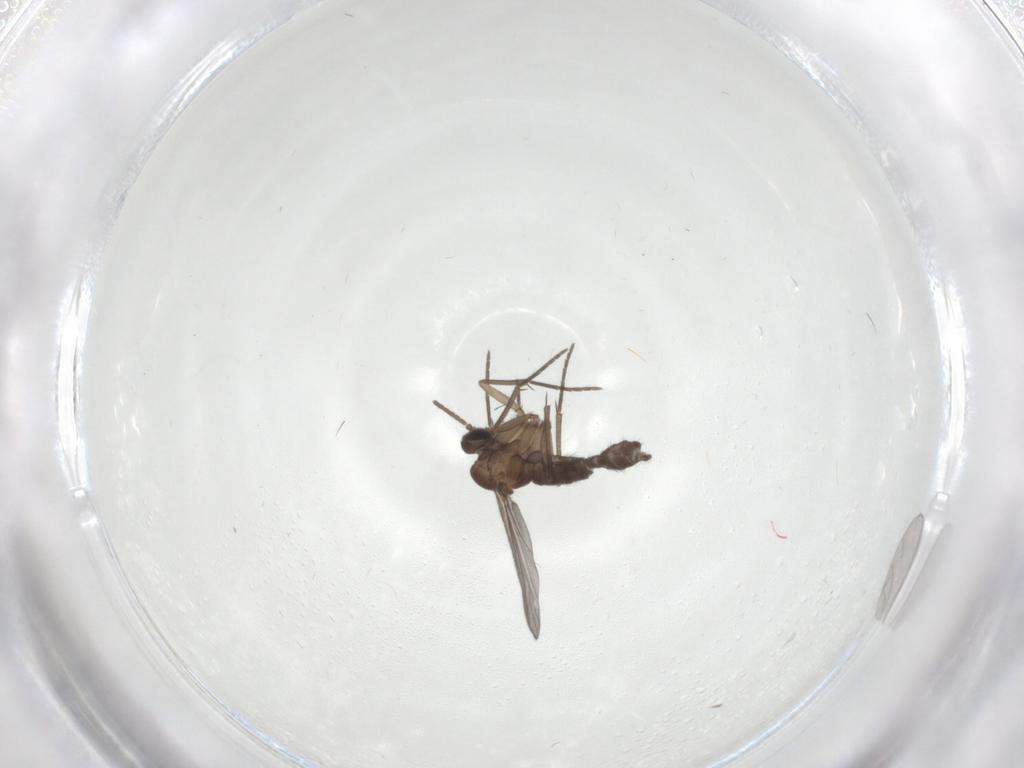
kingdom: Animalia
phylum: Arthropoda
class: Insecta
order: Diptera
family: Sciaridae
